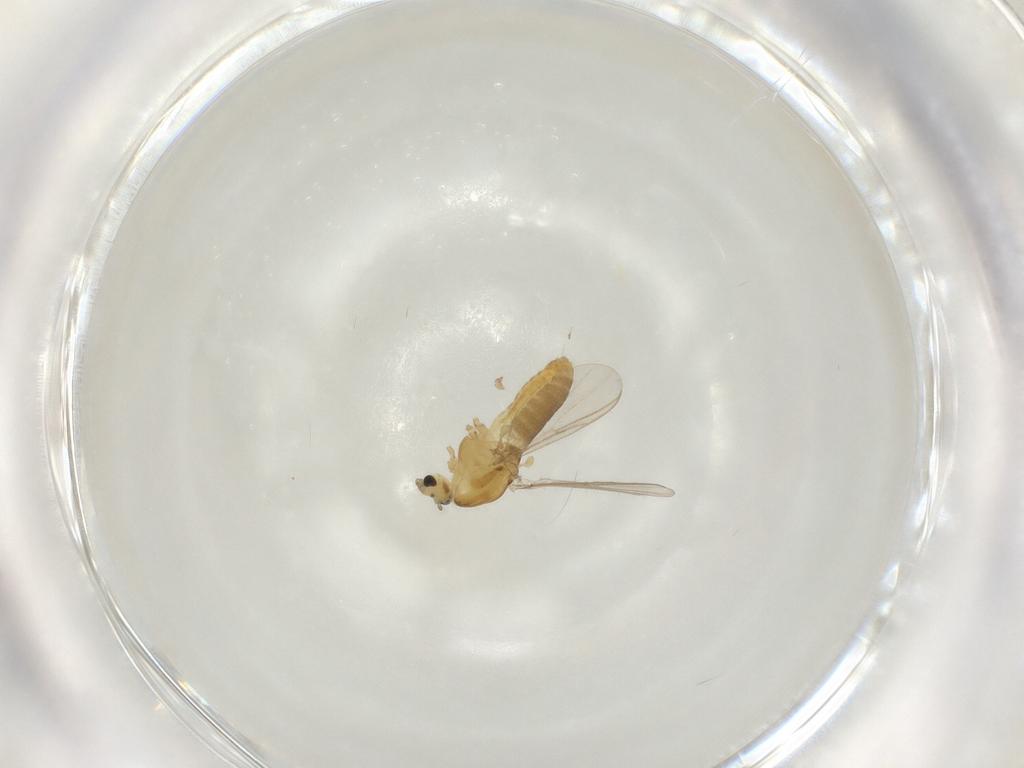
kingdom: Animalia
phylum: Arthropoda
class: Insecta
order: Diptera
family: Chironomidae
